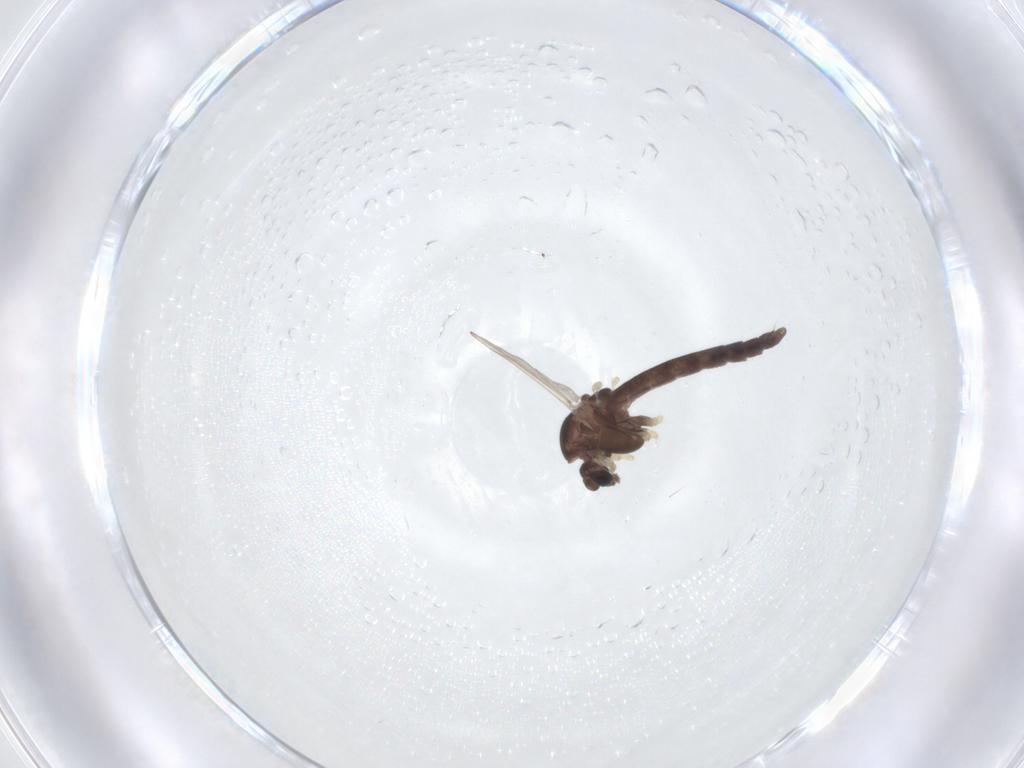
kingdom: Animalia
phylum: Arthropoda
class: Insecta
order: Diptera
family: Chironomidae
